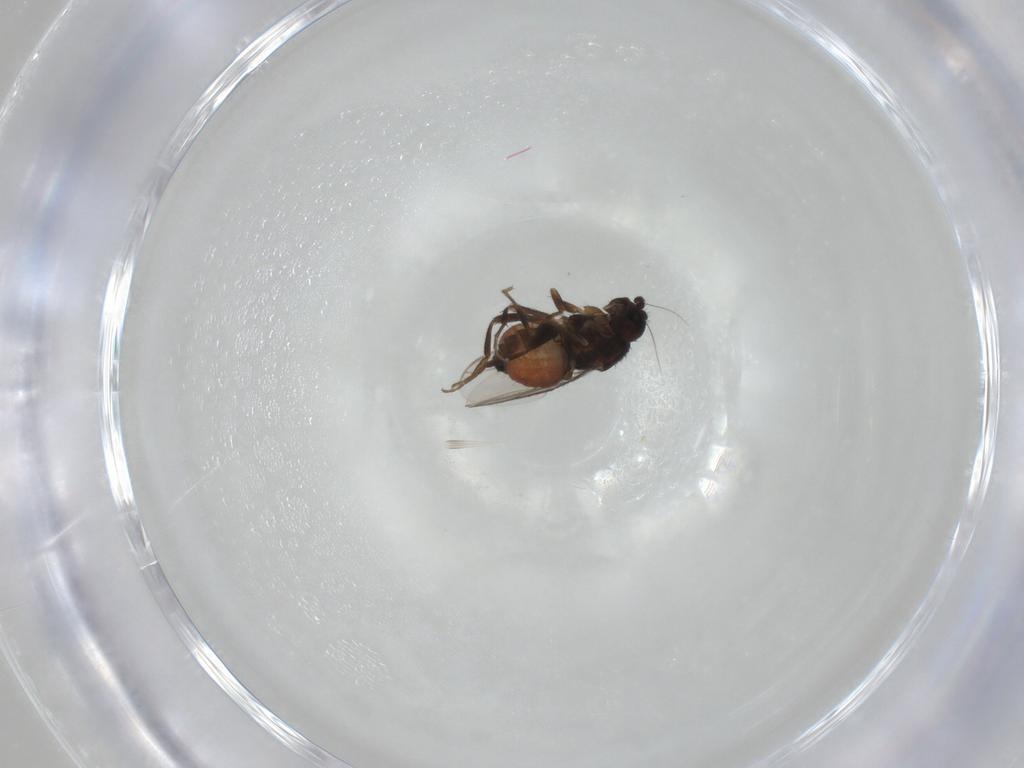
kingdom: Animalia
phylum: Arthropoda
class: Insecta
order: Diptera
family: Sphaeroceridae
